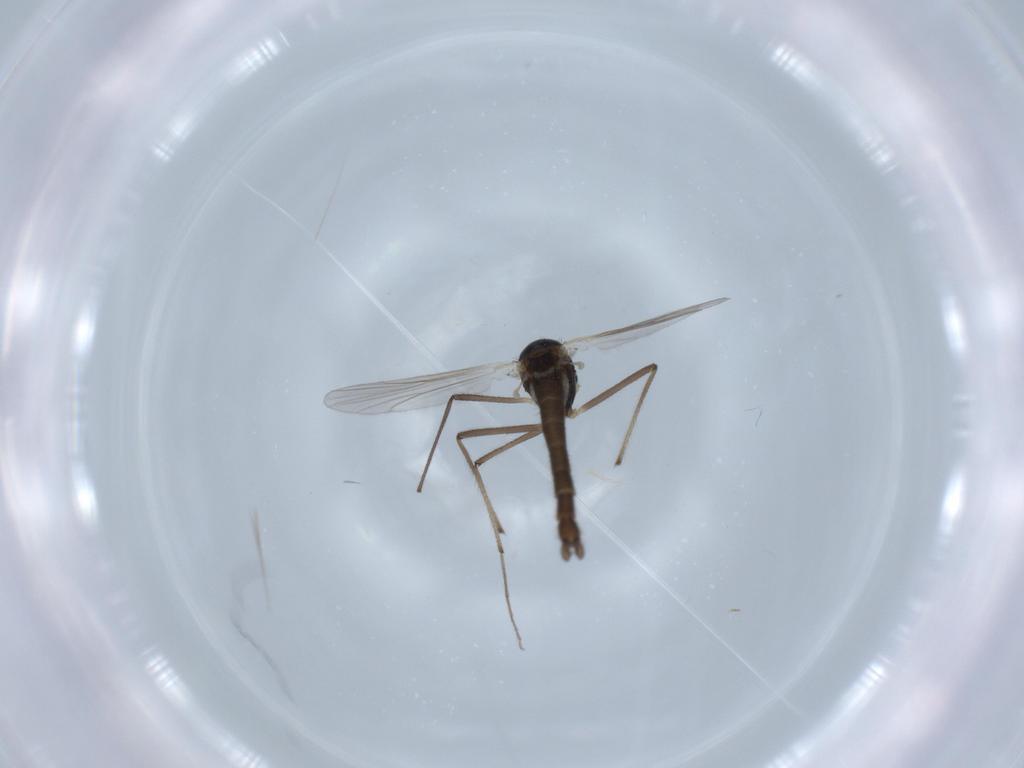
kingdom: Animalia
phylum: Arthropoda
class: Insecta
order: Diptera
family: Chironomidae
